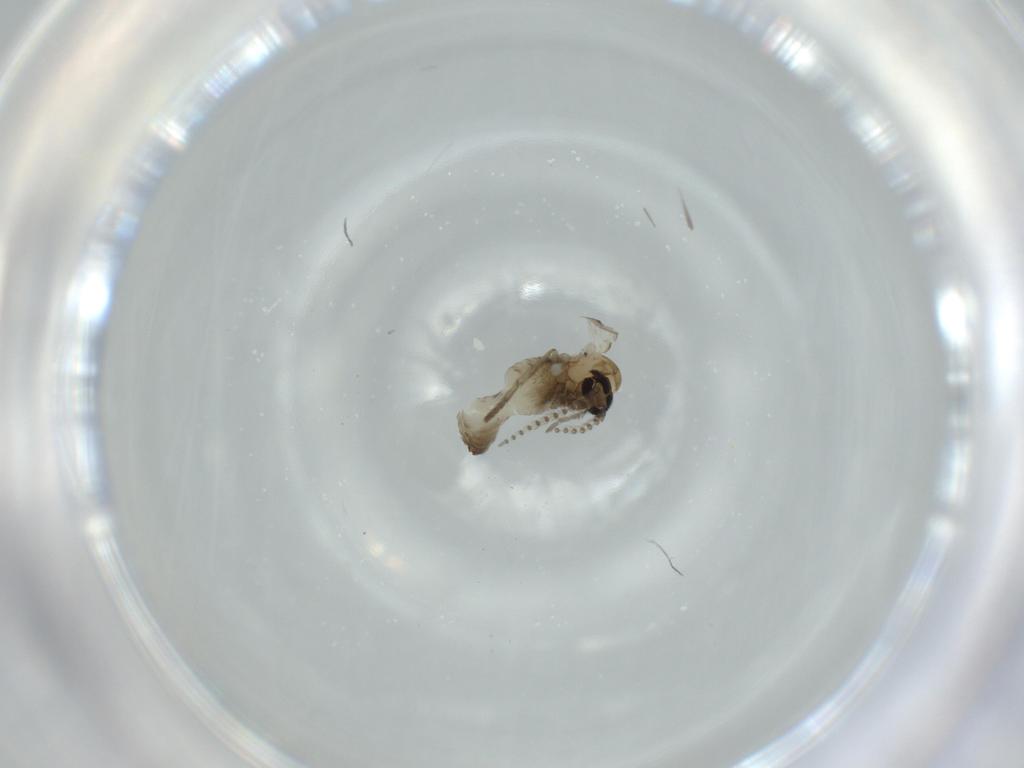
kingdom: Animalia
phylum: Arthropoda
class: Insecta
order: Diptera
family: Psychodidae
